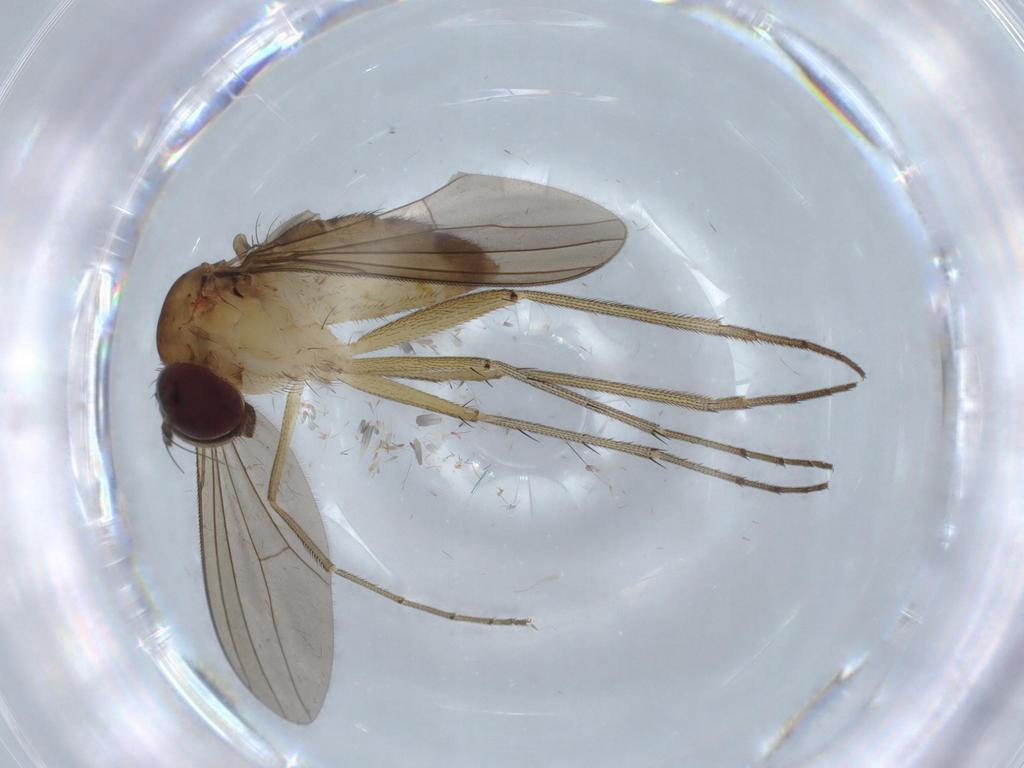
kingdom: Animalia
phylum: Arthropoda
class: Insecta
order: Diptera
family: Dolichopodidae
